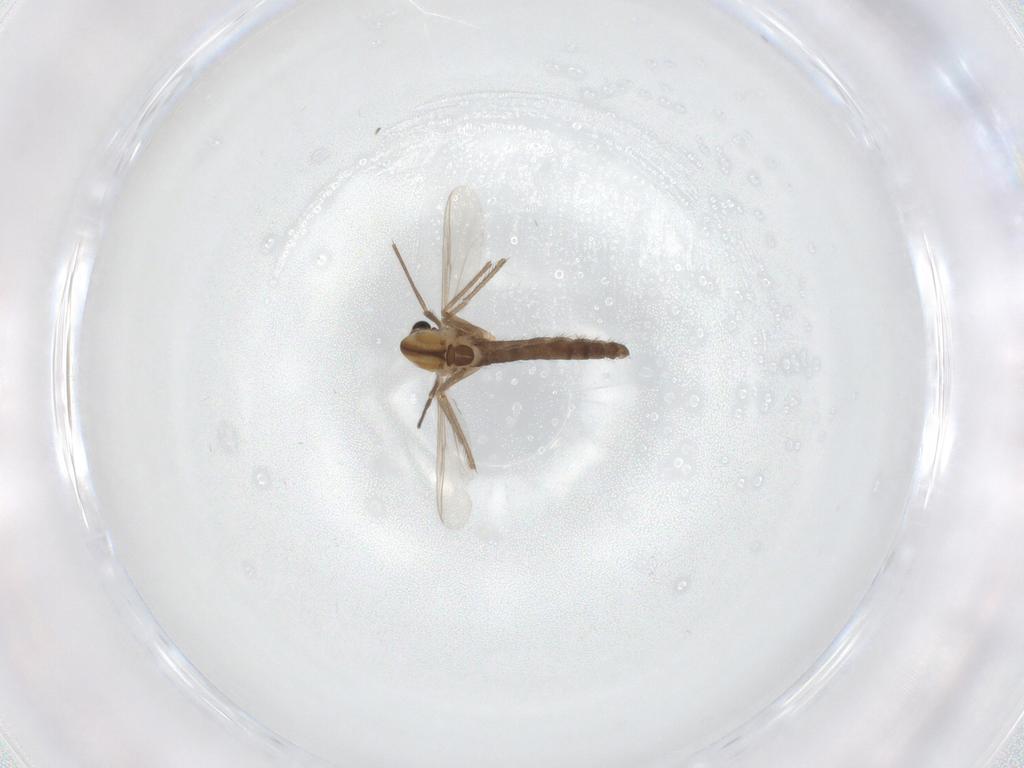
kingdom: Animalia
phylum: Arthropoda
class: Insecta
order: Diptera
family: Chironomidae
